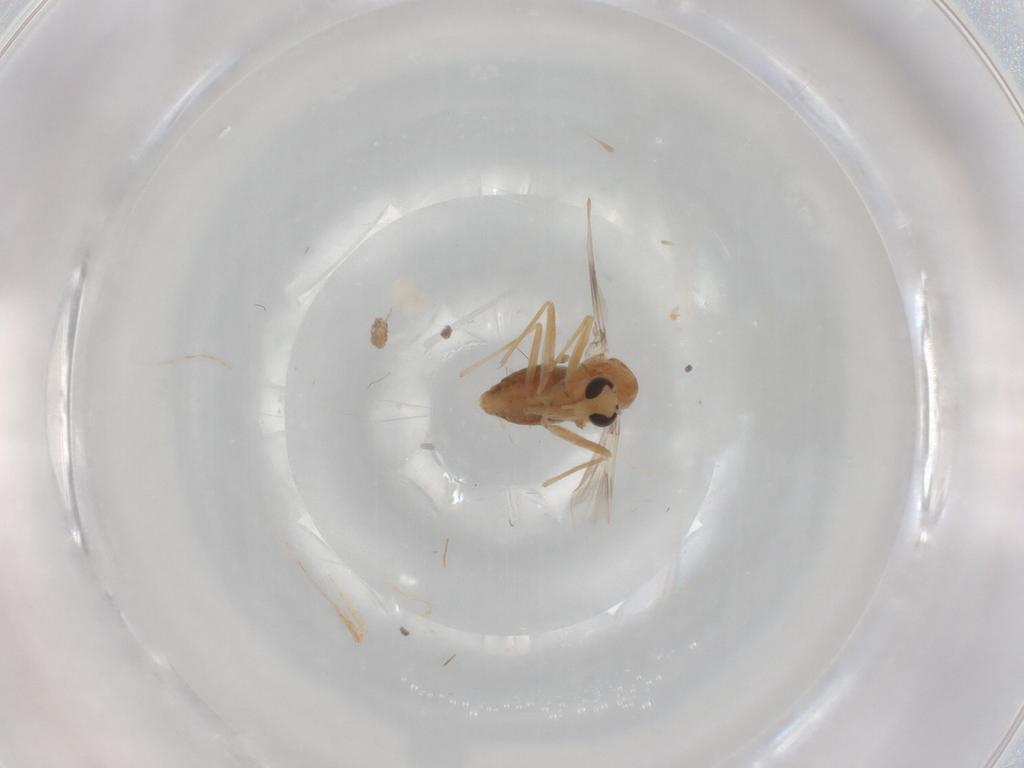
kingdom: Animalia
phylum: Arthropoda
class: Insecta
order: Diptera
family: Chironomidae
